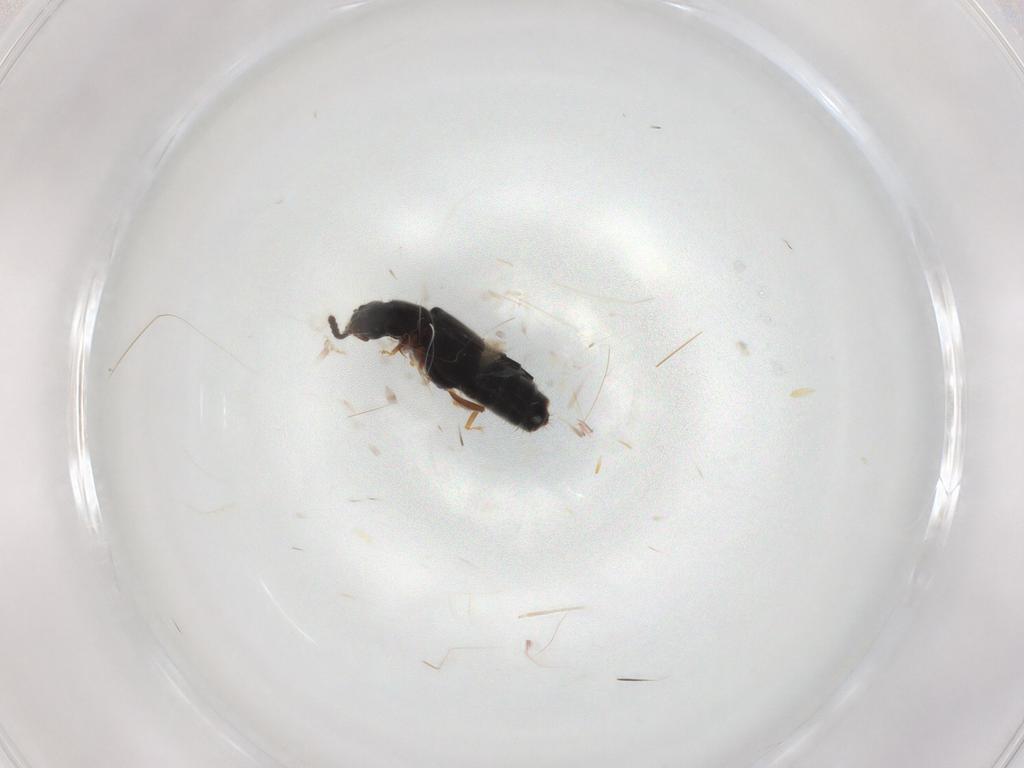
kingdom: Animalia
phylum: Arthropoda
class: Insecta
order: Coleoptera
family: Staphylinidae
